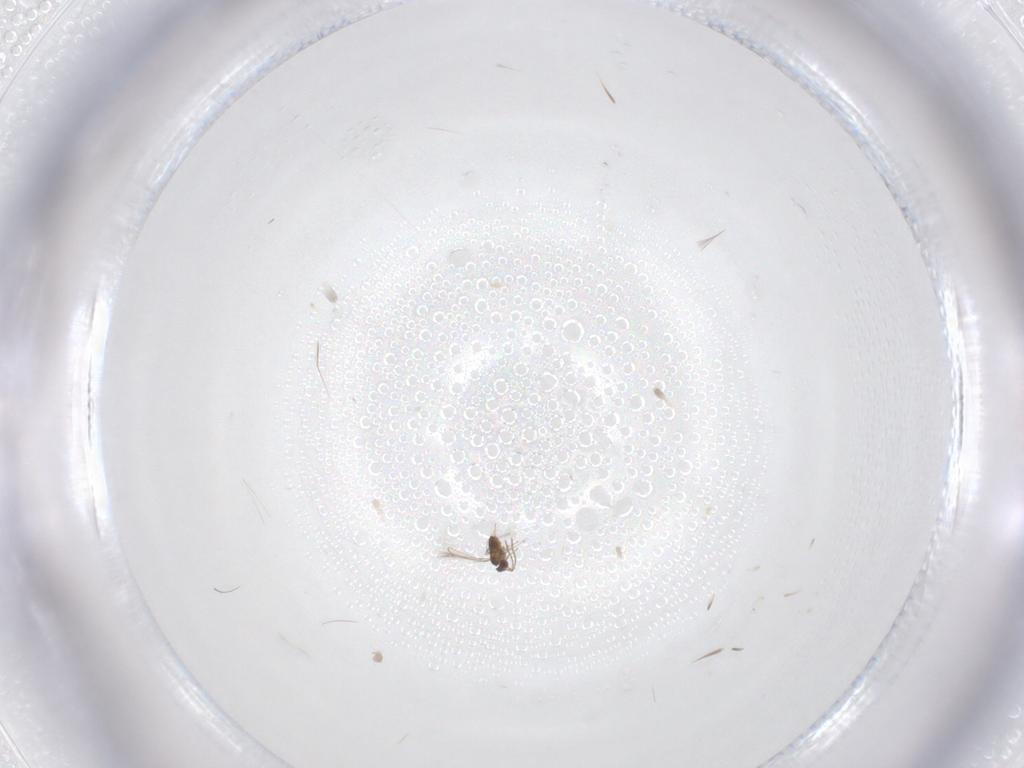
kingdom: Animalia
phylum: Arthropoda
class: Insecta
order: Hymenoptera
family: Mymaridae
